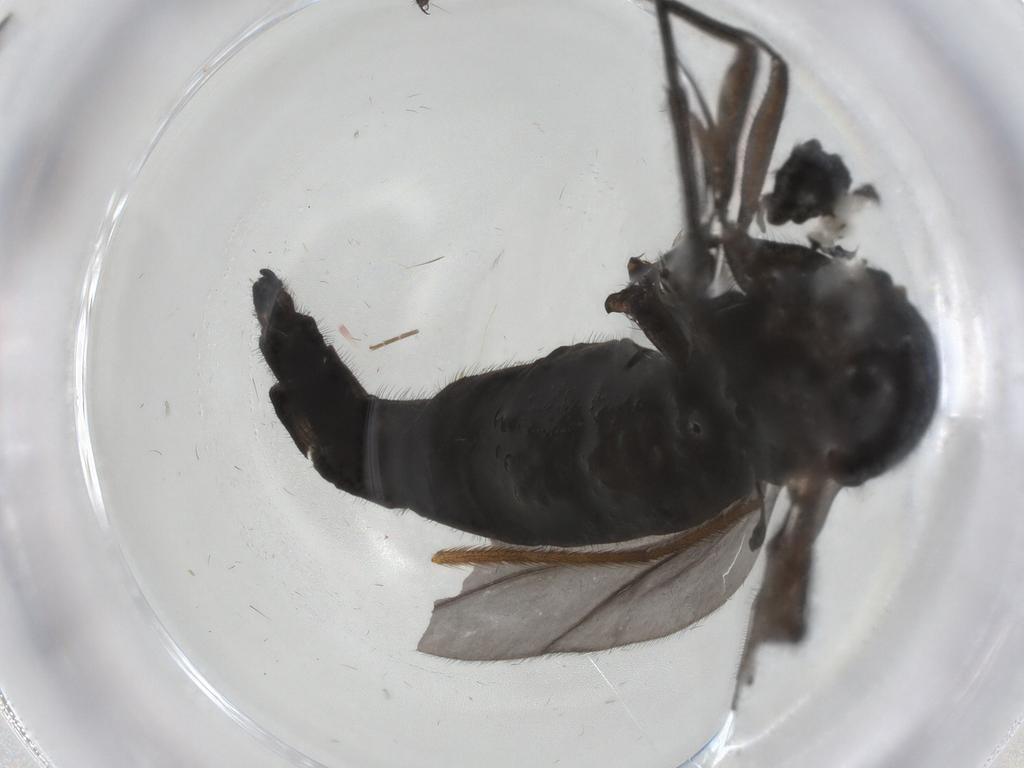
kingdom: Animalia
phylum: Arthropoda
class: Insecta
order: Diptera
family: Sciaridae
